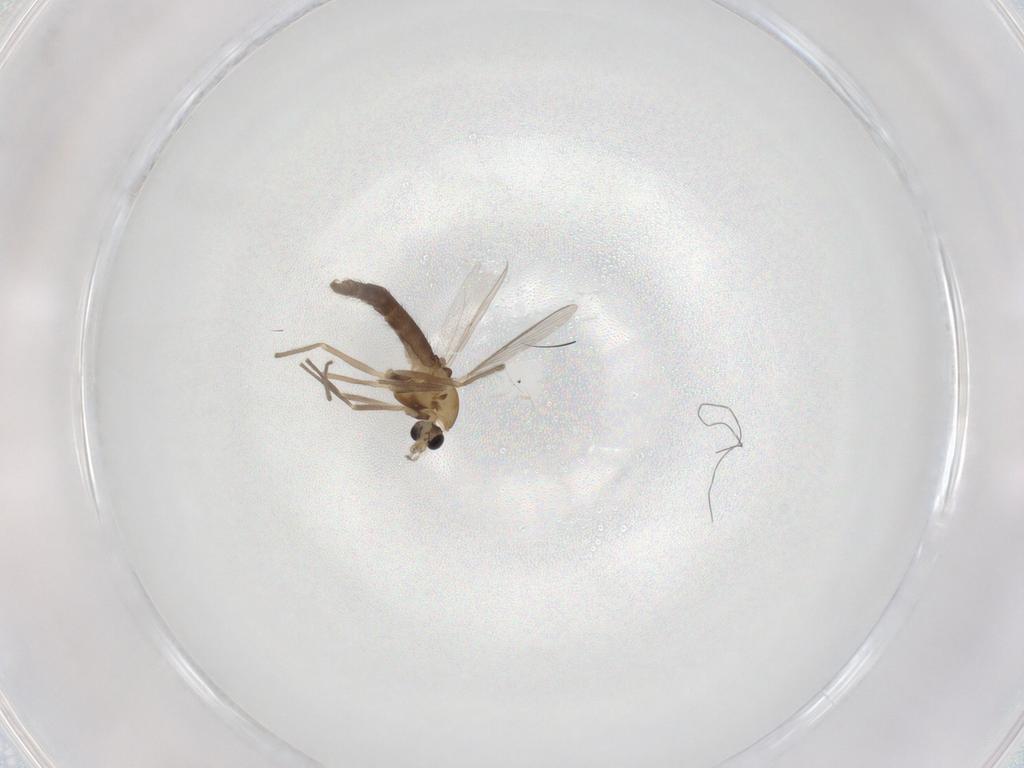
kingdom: Animalia
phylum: Arthropoda
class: Insecta
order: Diptera
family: Chironomidae
